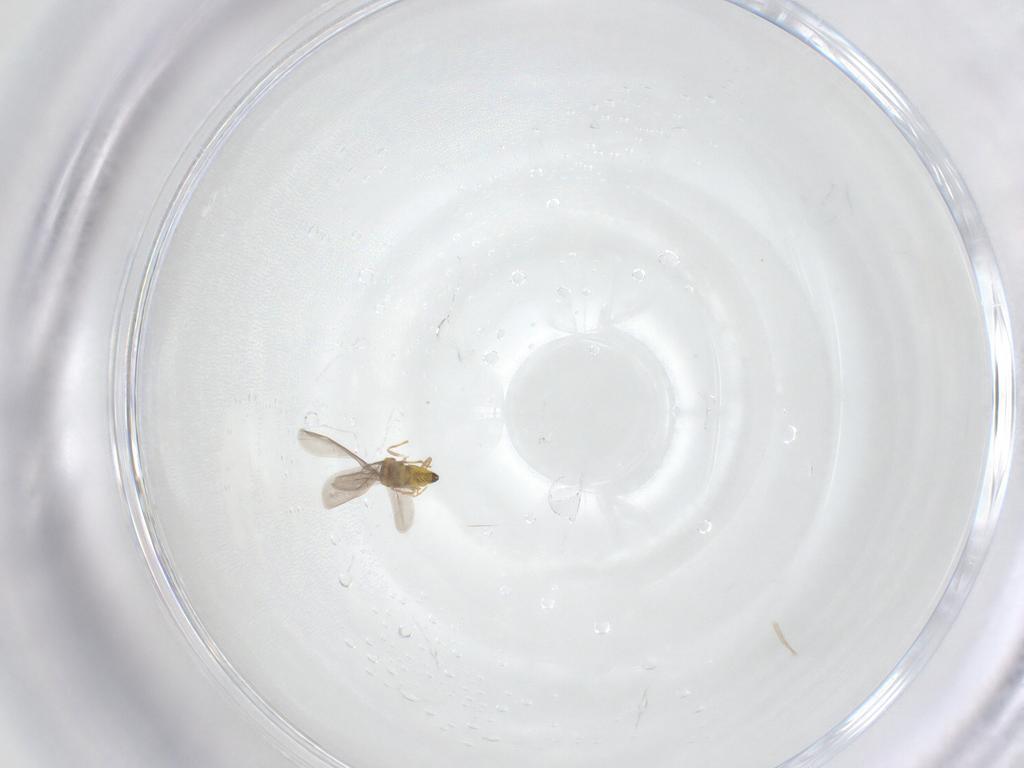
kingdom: Animalia
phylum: Arthropoda
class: Insecta
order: Hemiptera
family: Aleyrodidae
